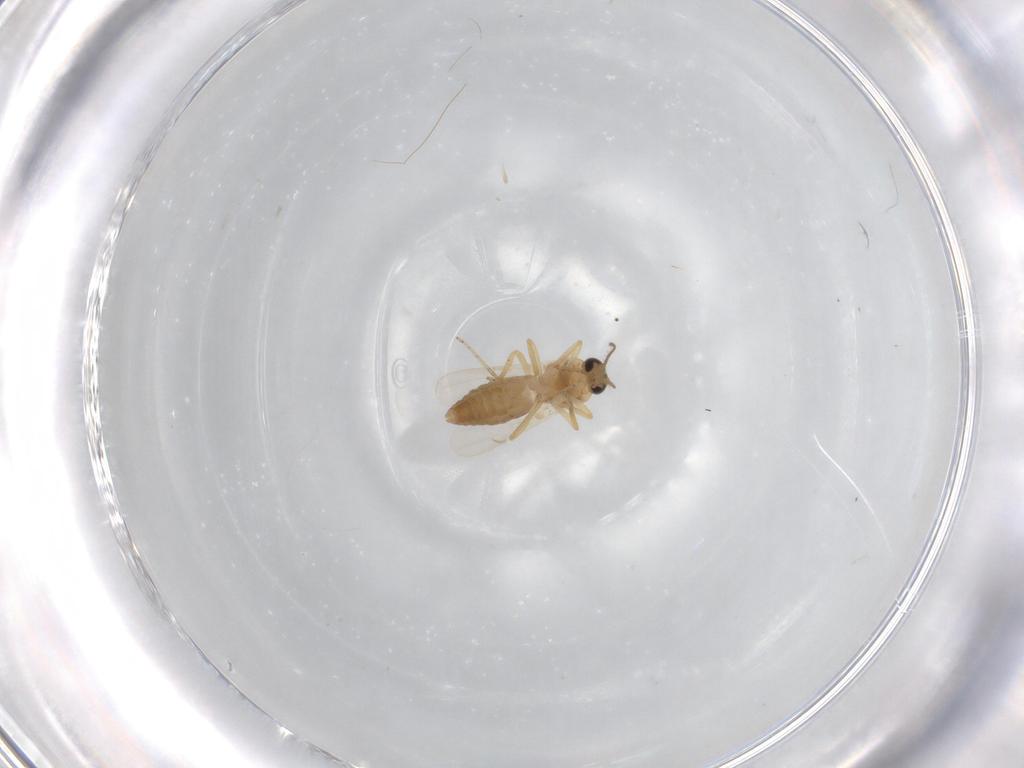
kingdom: Animalia
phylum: Arthropoda
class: Insecta
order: Diptera
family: Ceratopogonidae
